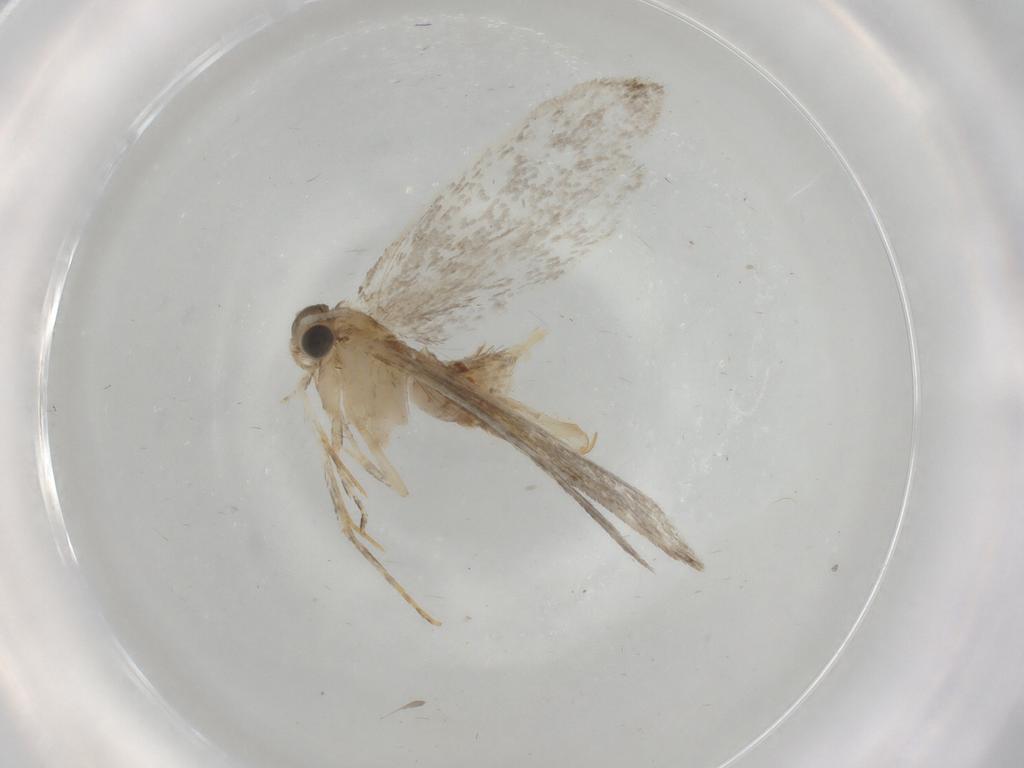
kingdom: Animalia
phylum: Arthropoda
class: Insecta
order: Lepidoptera
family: Tineidae
